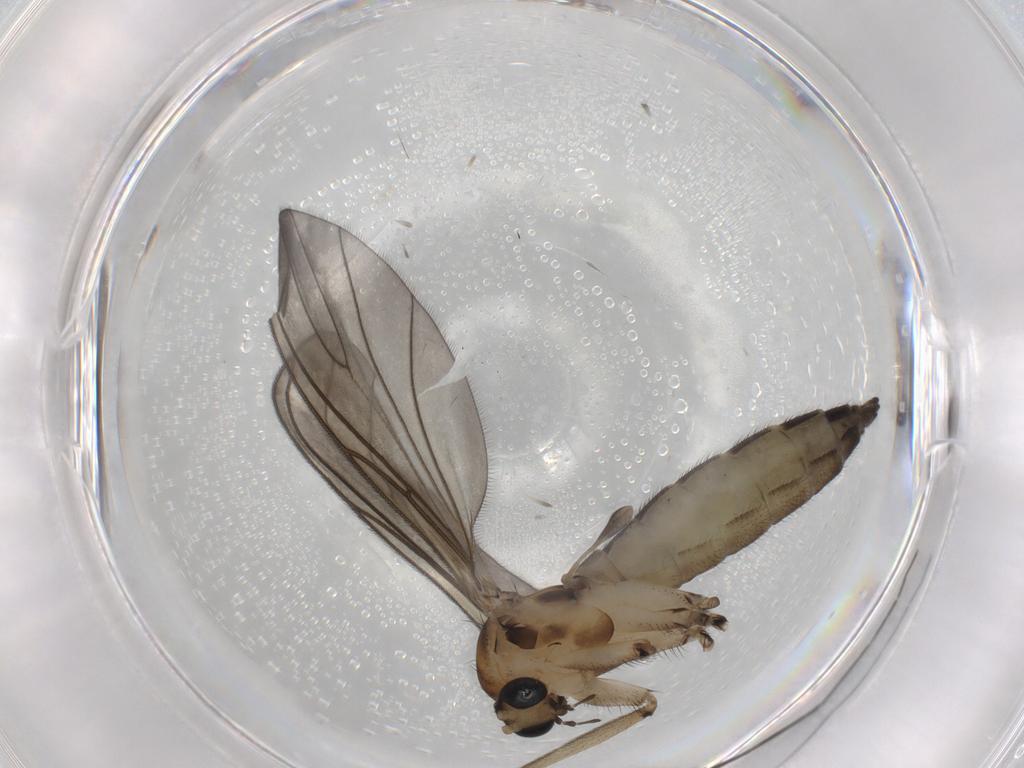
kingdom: Animalia
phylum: Arthropoda
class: Insecta
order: Diptera
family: Sciaridae
